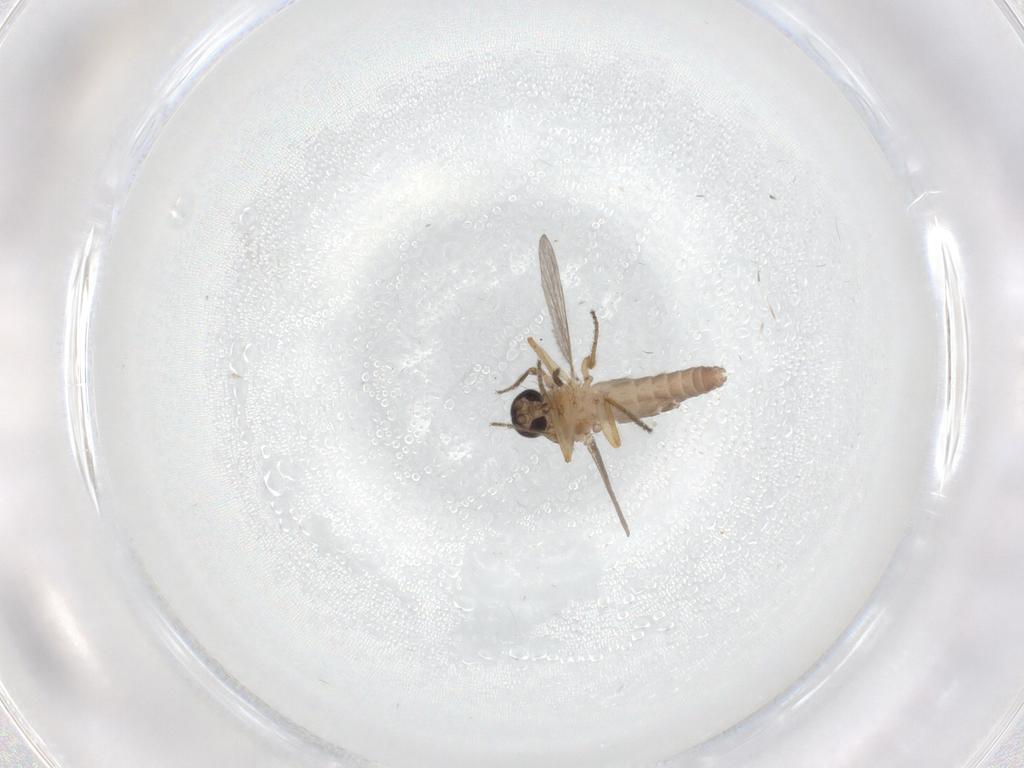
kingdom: Animalia
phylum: Arthropoda
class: Insecta
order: Diptera
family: Ceratopogonidae
